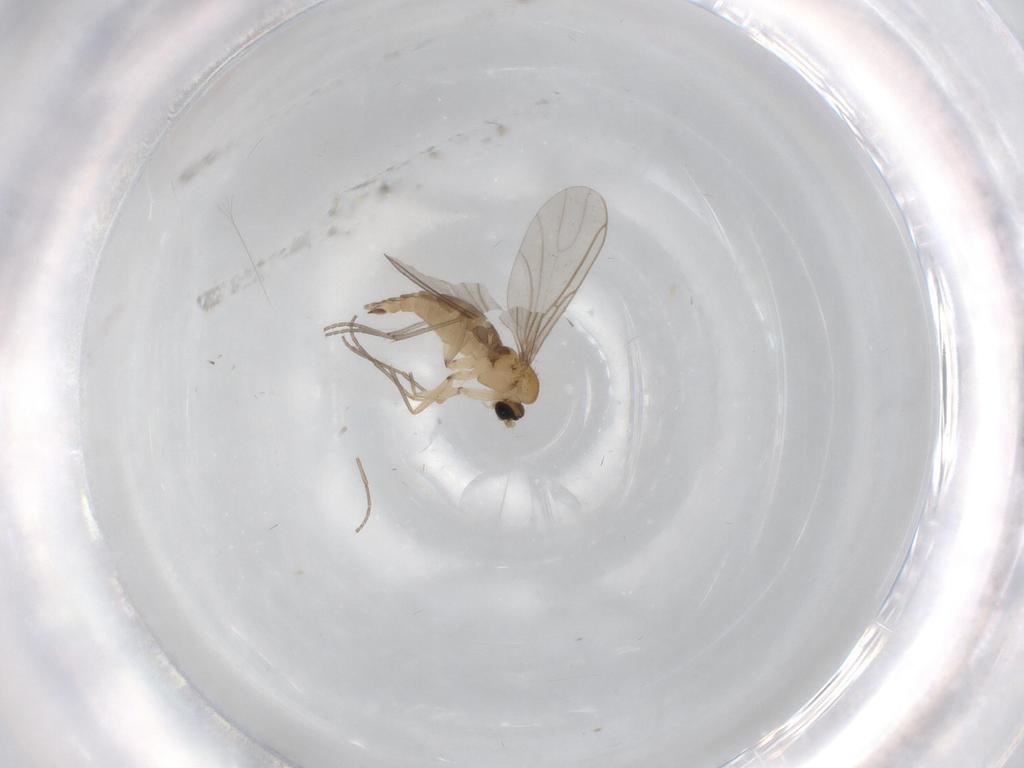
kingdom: Animalia
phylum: Arthropoda
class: Insecta
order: Diptera
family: Sciaridae
